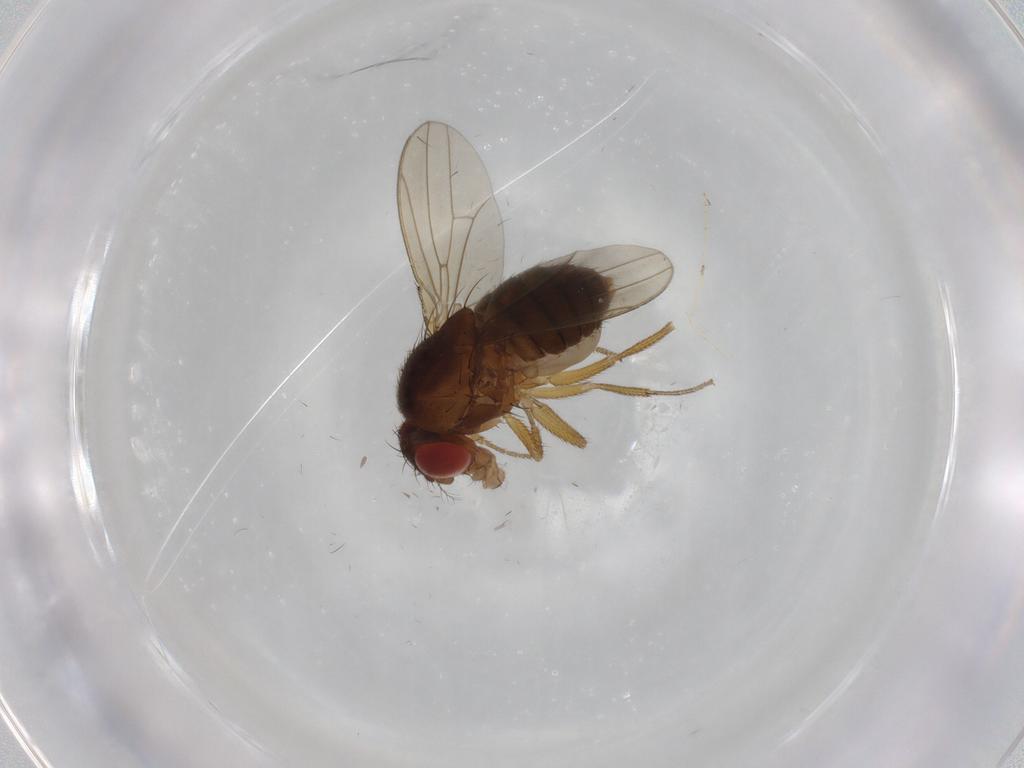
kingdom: Animalia
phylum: Arthropoda
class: Insecta
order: Diptera
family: Drosophilidae
